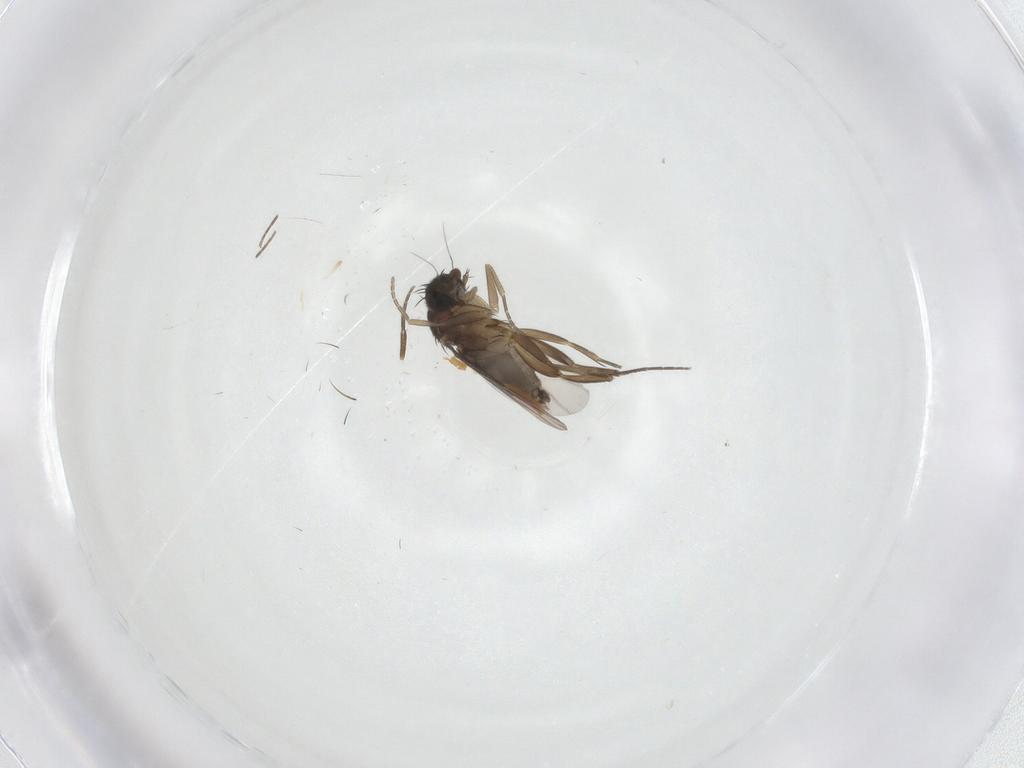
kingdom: Animalia
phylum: Arthropoda
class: Insecta
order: Diptera
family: Phoridae
